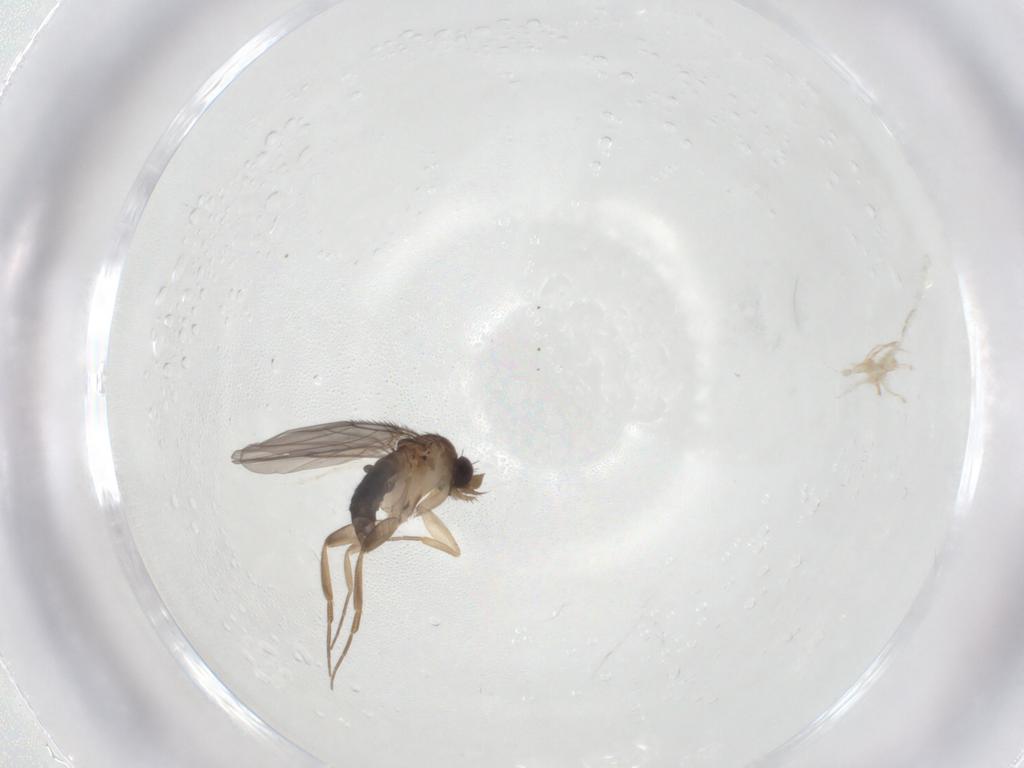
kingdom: Animalia
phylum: Arthropoda
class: Insecta
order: Diptera
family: Phoridae
